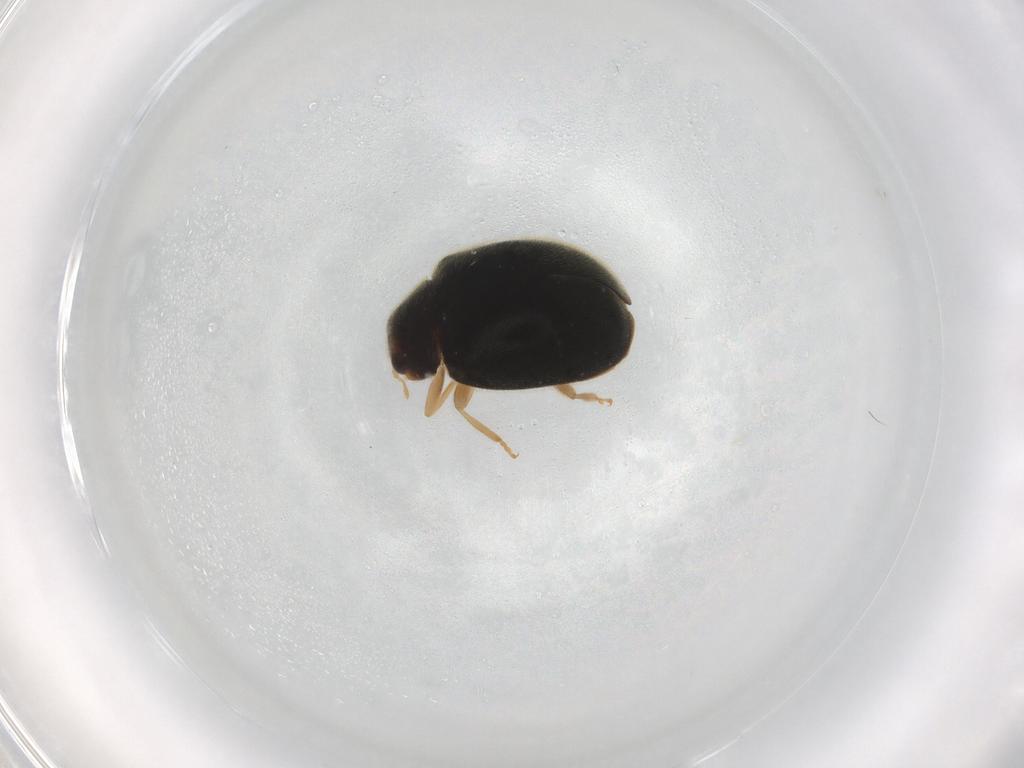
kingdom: Animalia
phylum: Arthropoda
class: Insecta
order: Coleoptera
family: Coccinellidae
